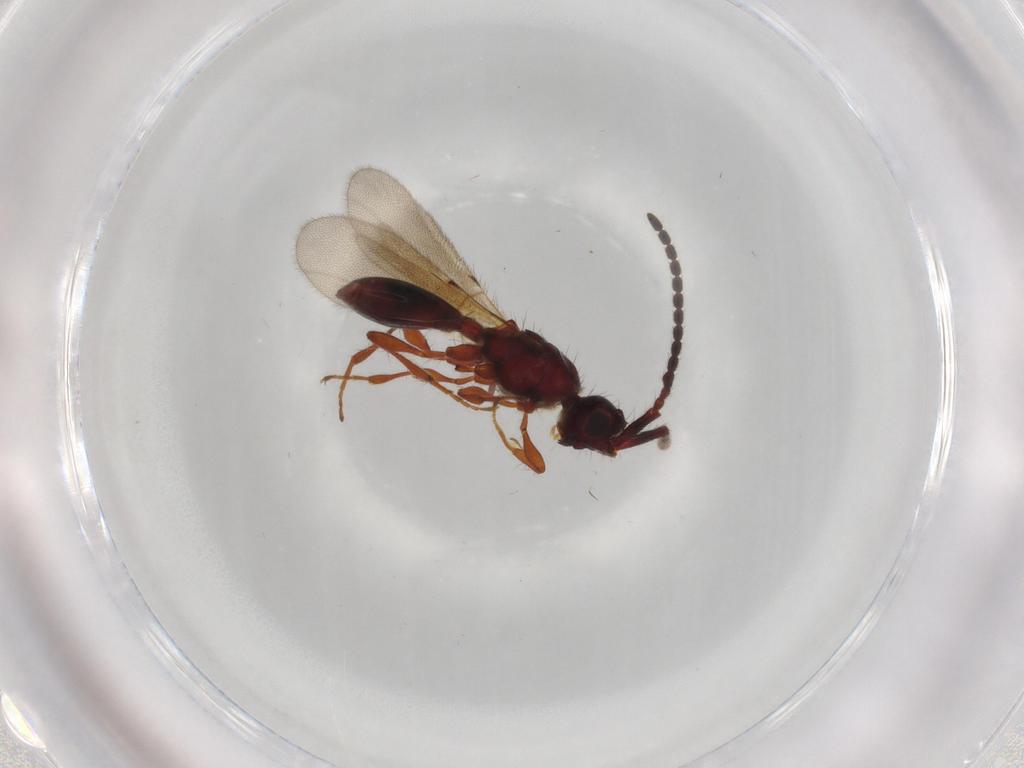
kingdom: Animalia
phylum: Arthropoda
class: Insecta
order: Hymenoptera
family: Diapriidae
